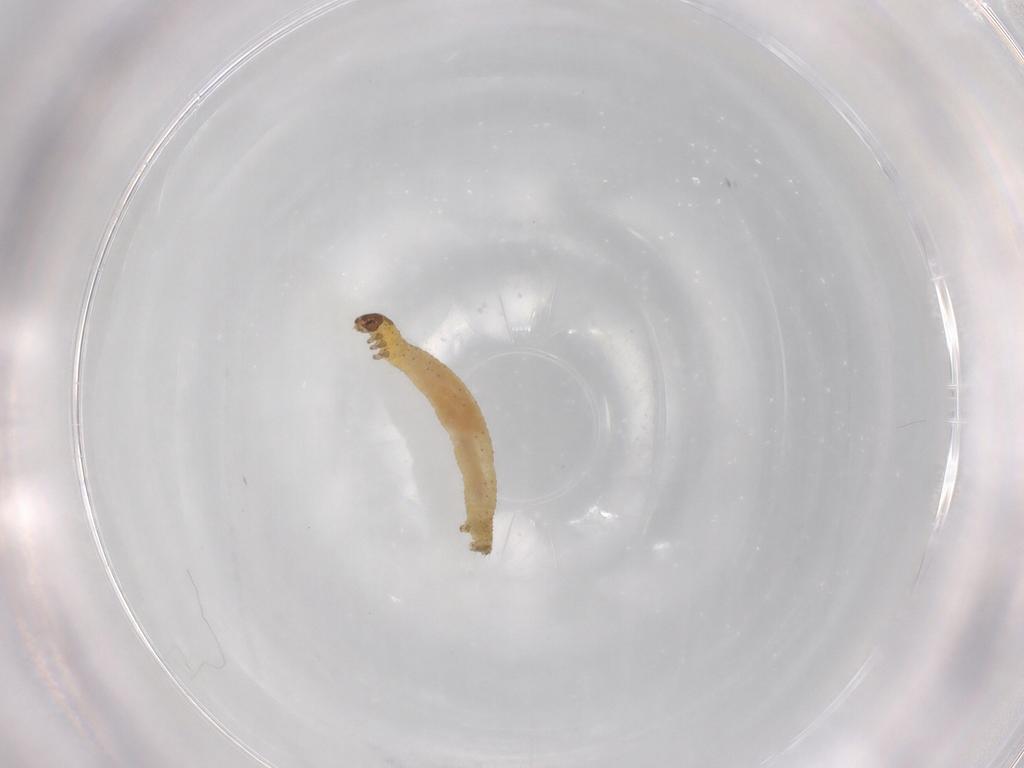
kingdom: Animalia
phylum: Arthropoda
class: Insecta
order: Lepidoptera
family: Geometridae
